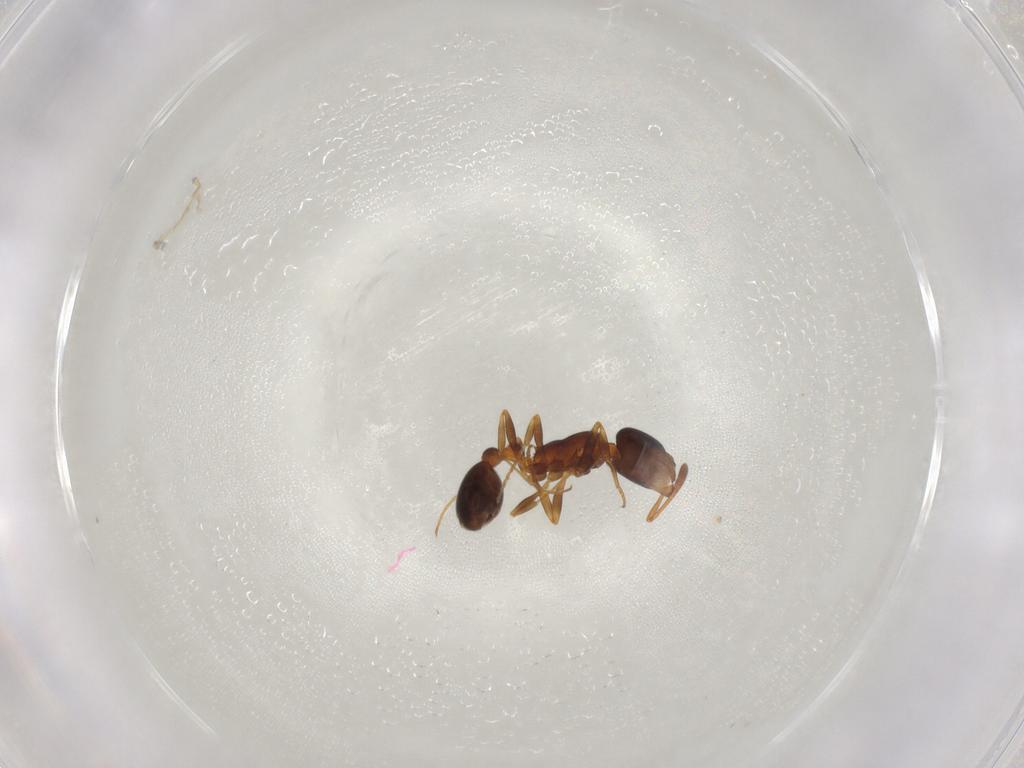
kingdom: Animalia
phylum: Arthropoda
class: Insecta
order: Hymenoptera
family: Formicidae
